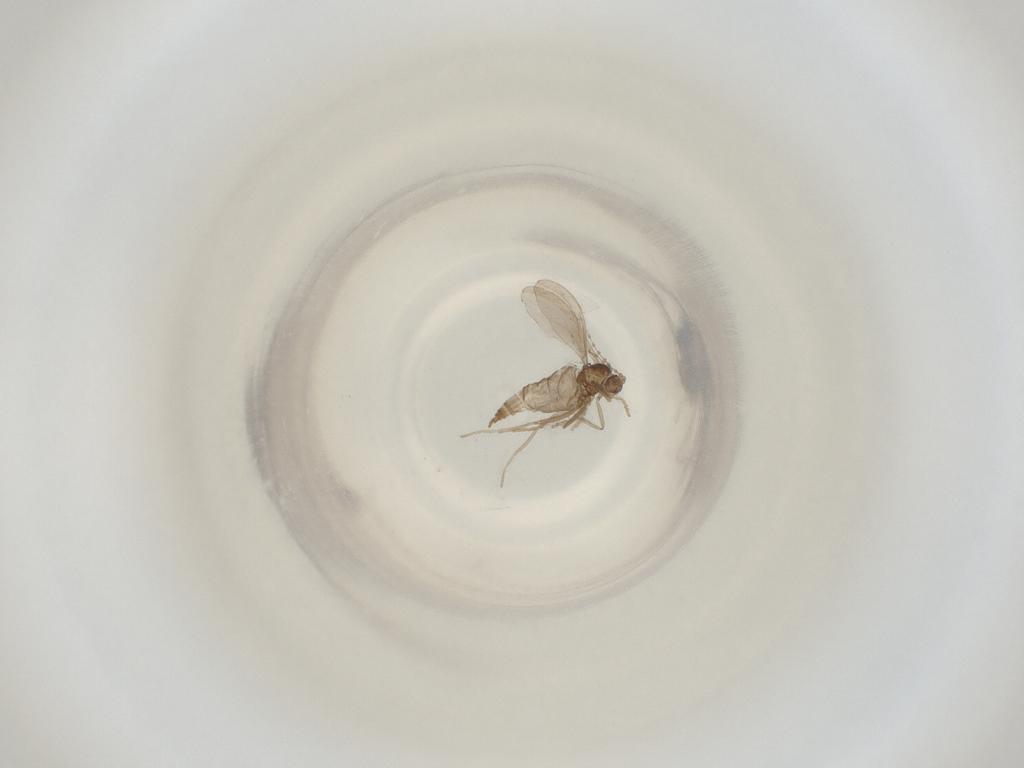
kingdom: Animalia
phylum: Arthropoda
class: Insecta
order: Diptera
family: Cecidomyiidae
